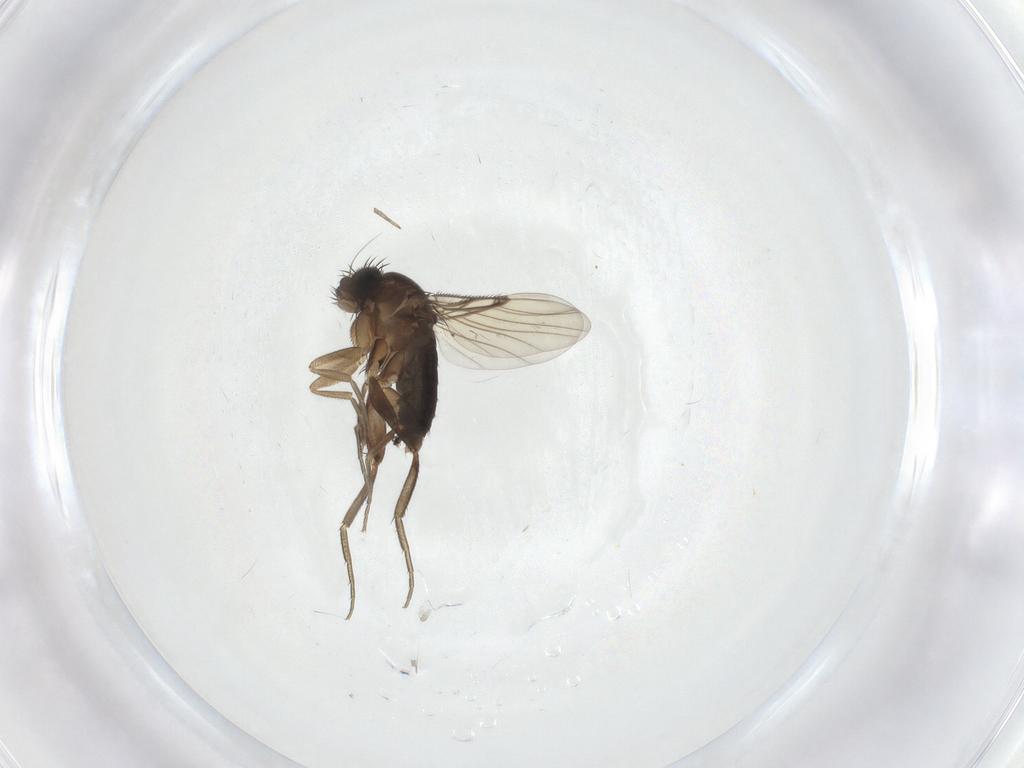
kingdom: Animalia
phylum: Arthropoda
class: Insecta
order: Diptera
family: Phoridae
